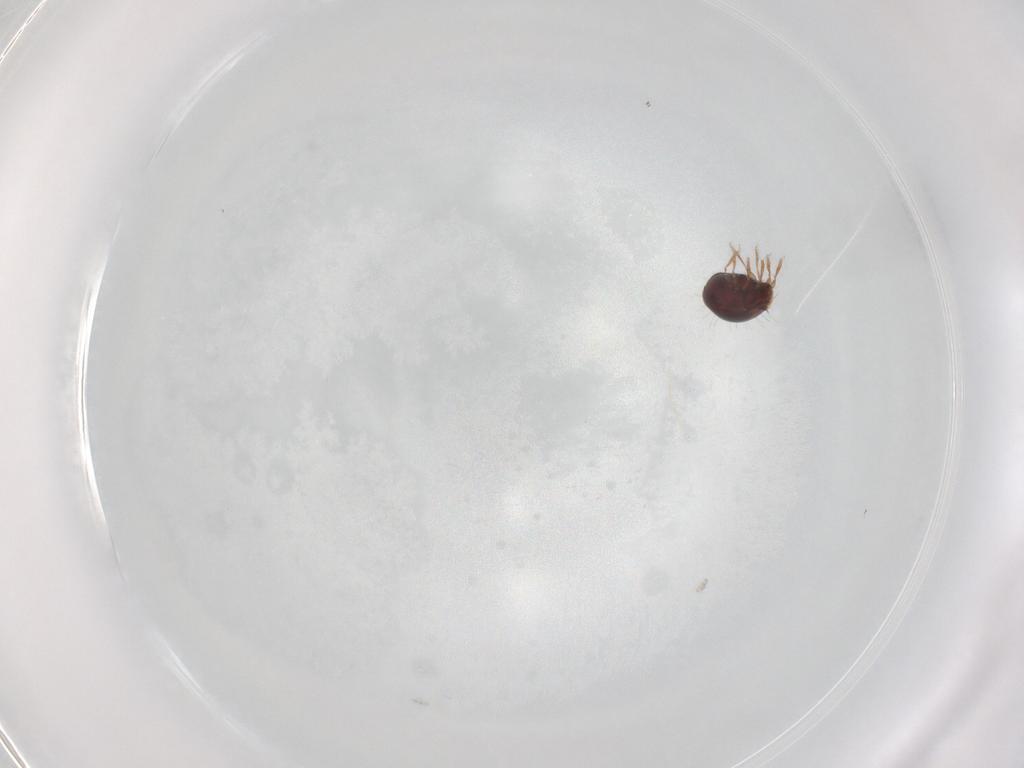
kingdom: Animalia
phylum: Arthropoda
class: Arachnida
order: Sarcoptiformes
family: Humerobatidae
